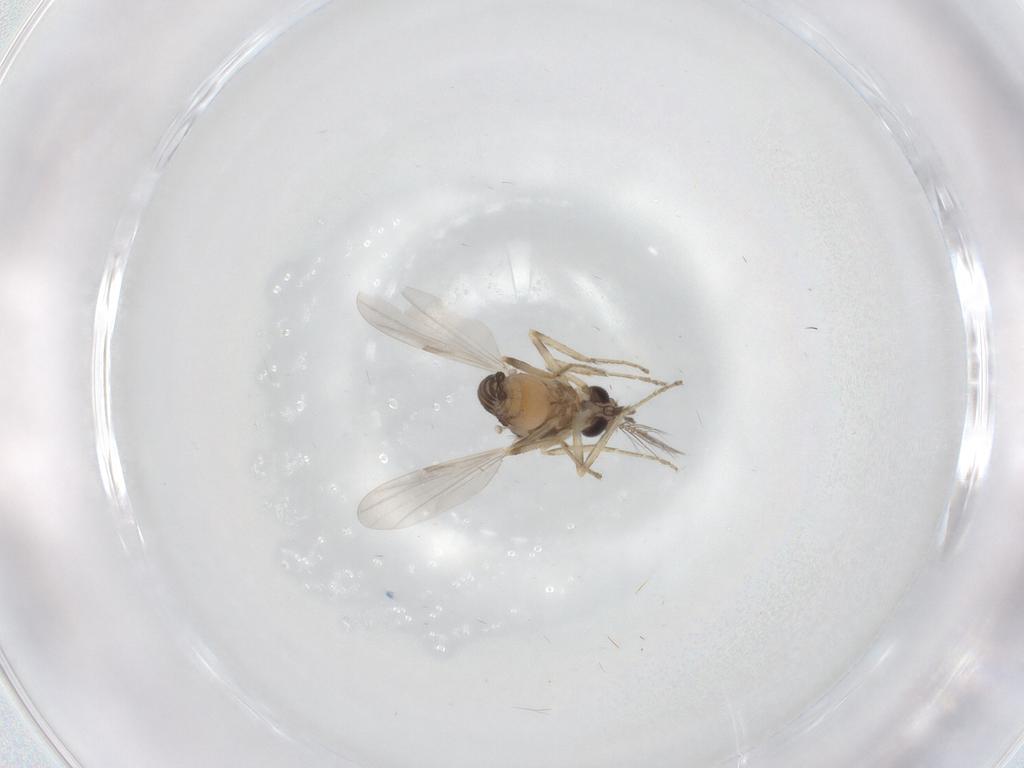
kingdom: Animalia
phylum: Arthropoda
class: Insecta
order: Diptera
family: Ceratopogonidae
